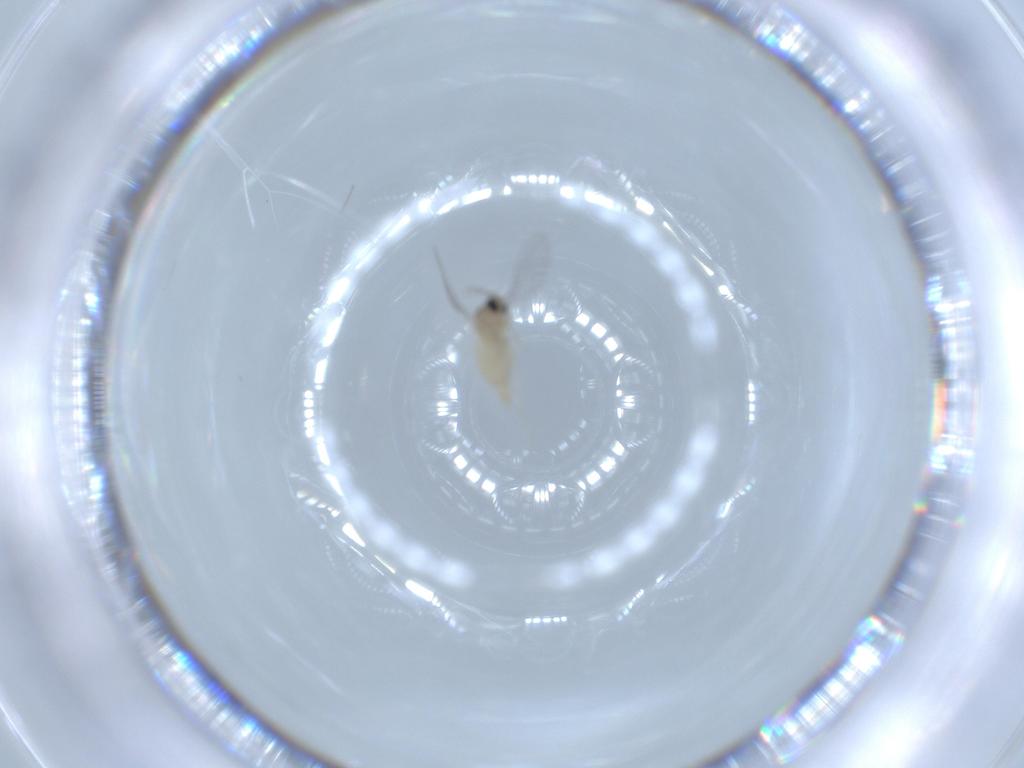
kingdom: Animalia
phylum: Arthropoda
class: Insecta
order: Diptera
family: Cecidomyiidae
